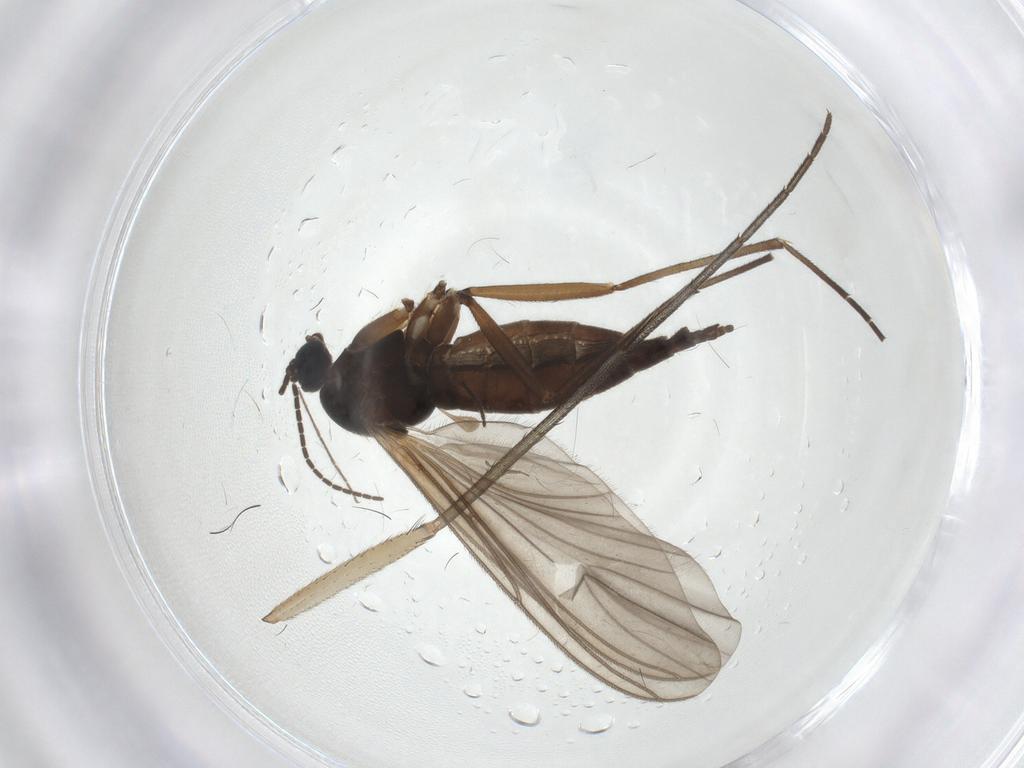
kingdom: Animalia
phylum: Arthropoda
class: Insecta
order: Diptera
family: Sciaridae
